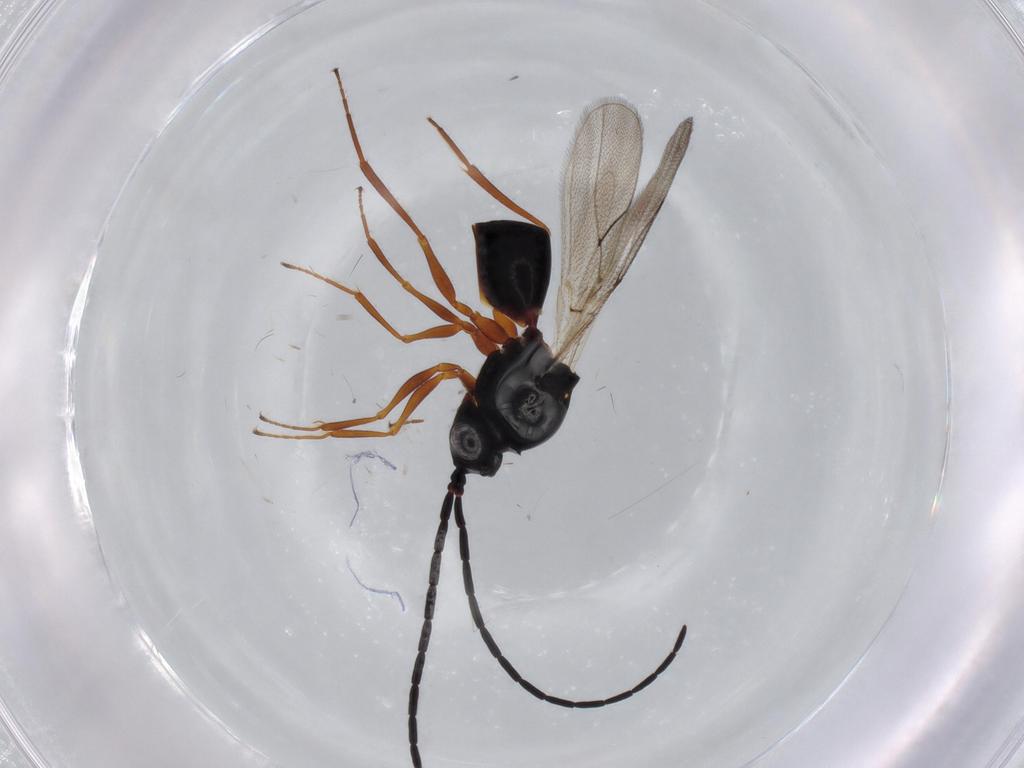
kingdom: Animalia
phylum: Arthropoda
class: Insecta
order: Hymenoptera
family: Figitidae
